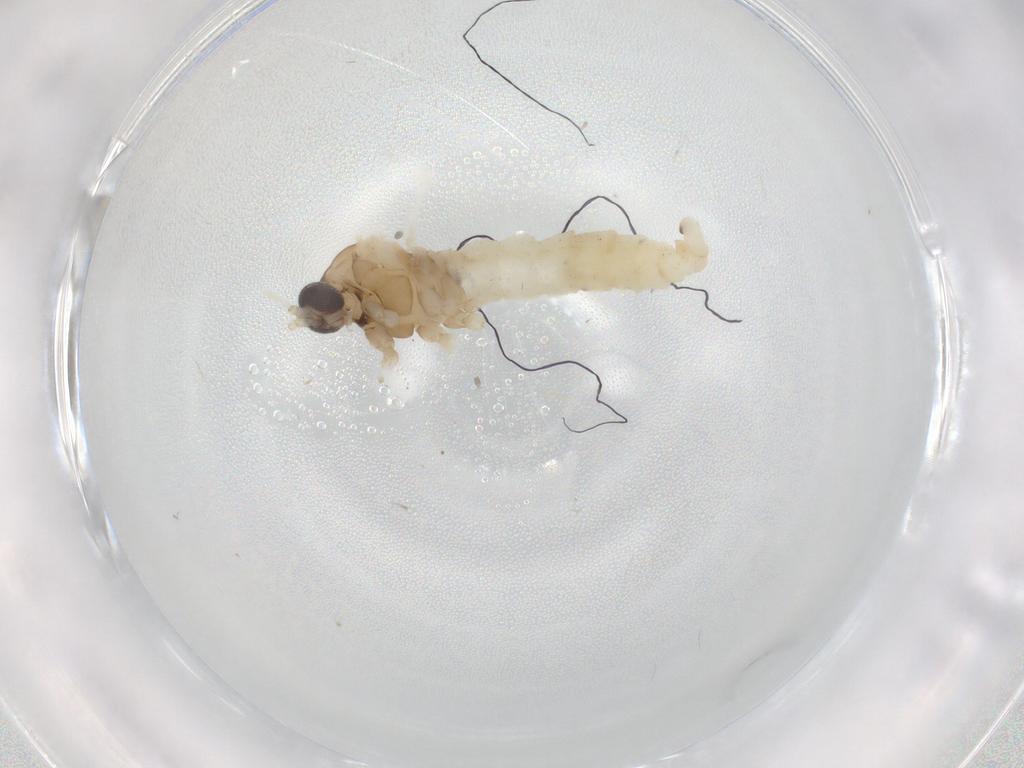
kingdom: Animalia
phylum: Arthropoda
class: Insecta
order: Diptera
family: Cecidomyiidae
